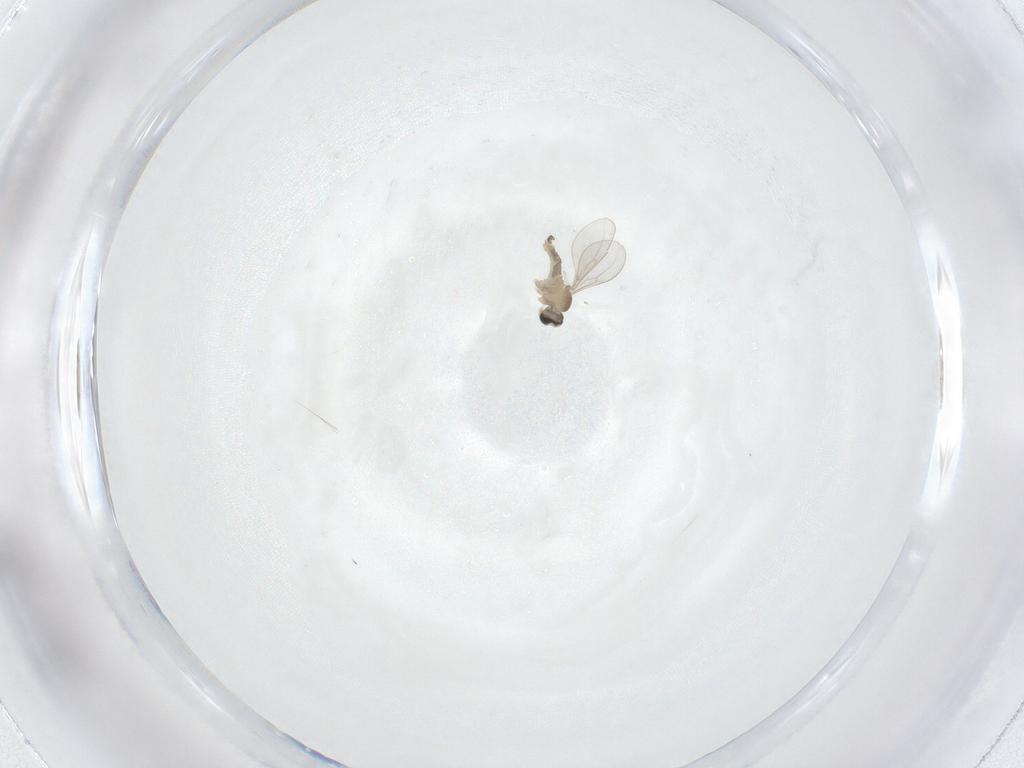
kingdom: Animalia
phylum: Arthropoda
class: Insecta
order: Diptera
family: Cecidomyiidae
